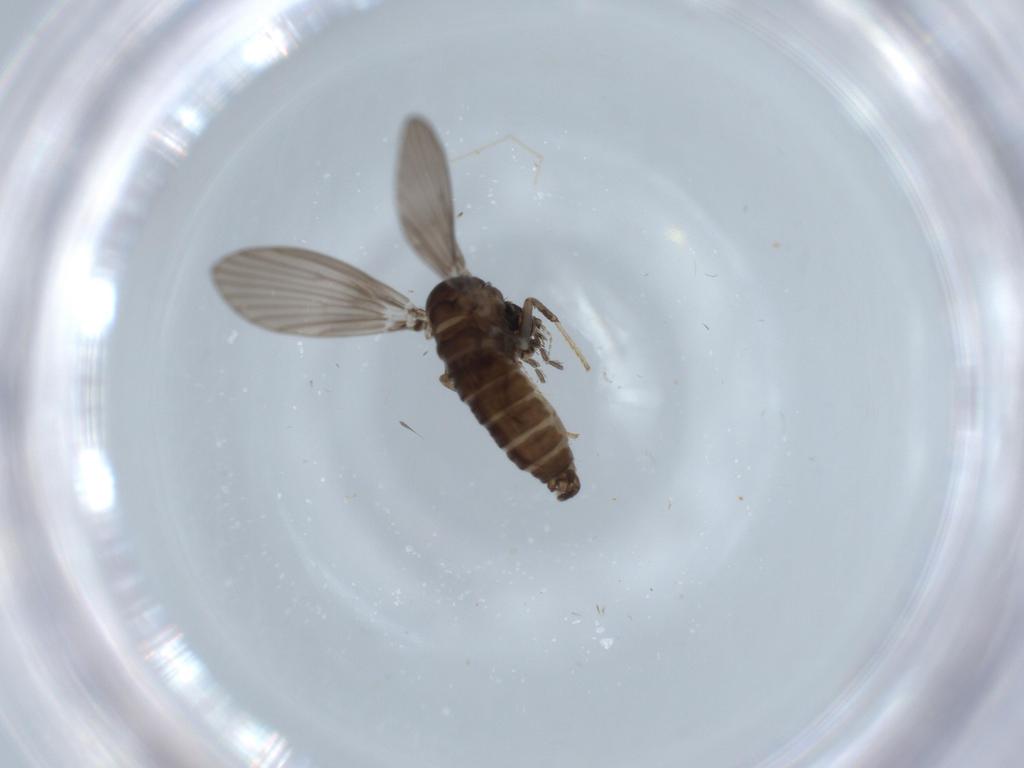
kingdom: Animalia
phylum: Arthropoda
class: Insecta
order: Diptera
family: Psychodidae
